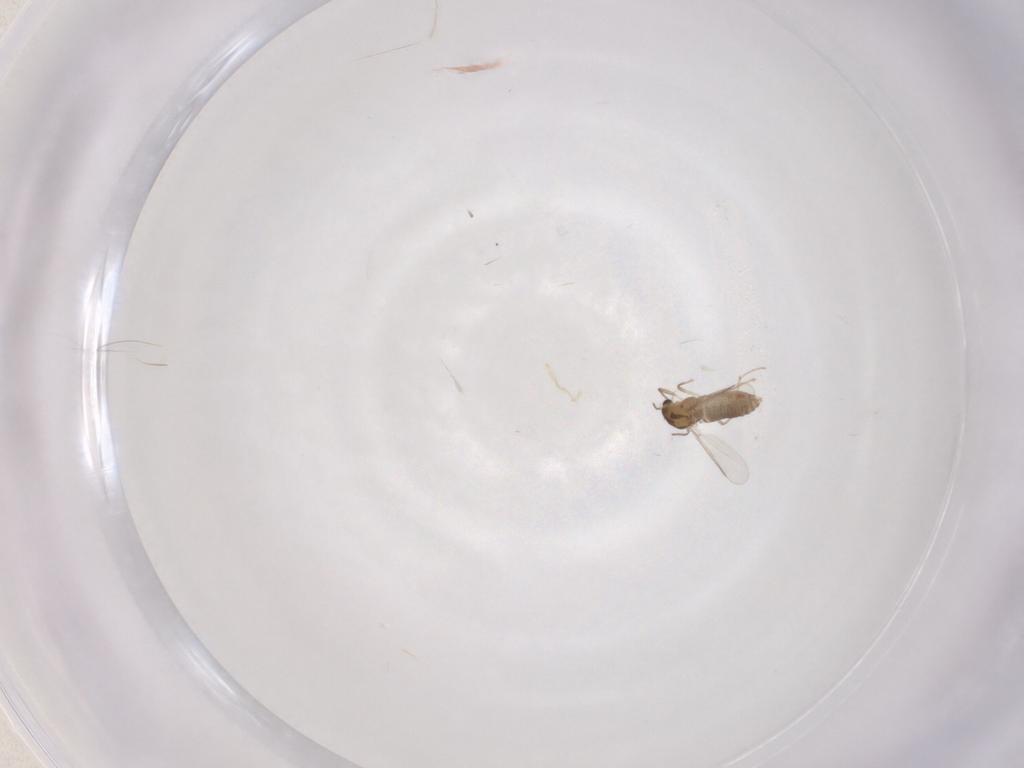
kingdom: Animalia
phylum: Arthropoda
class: Insecta
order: Diptera
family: Chironomidae
